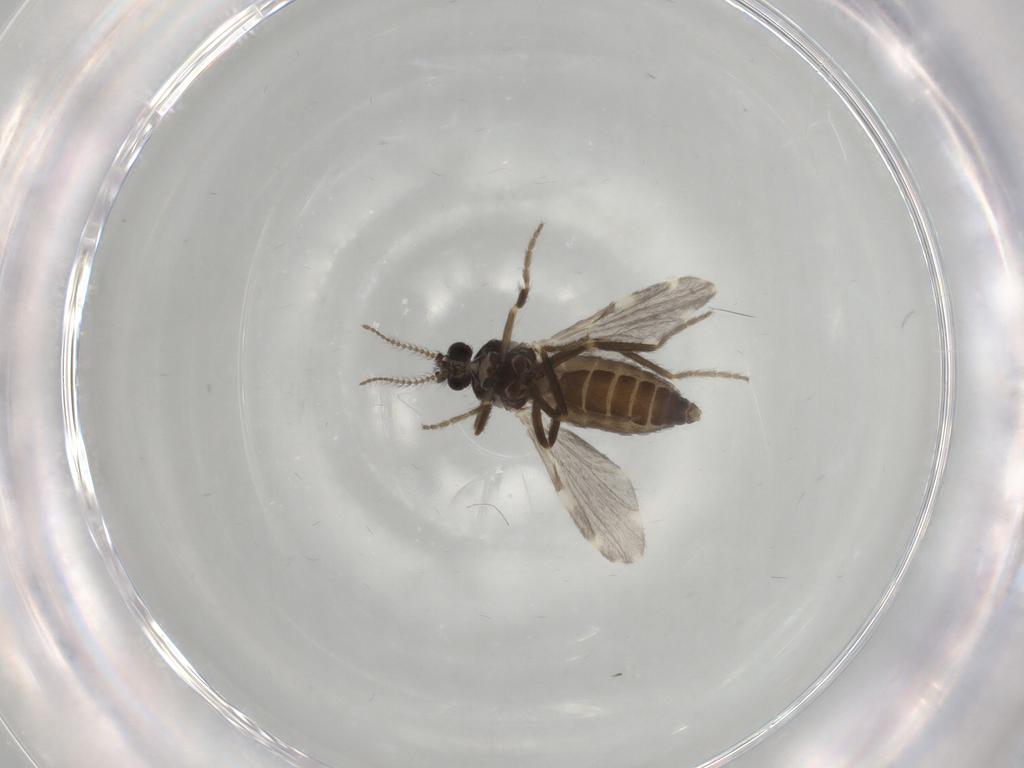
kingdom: Animalia
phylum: Arthropoda
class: Insecta
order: Diptera
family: Ceratopogonidae
